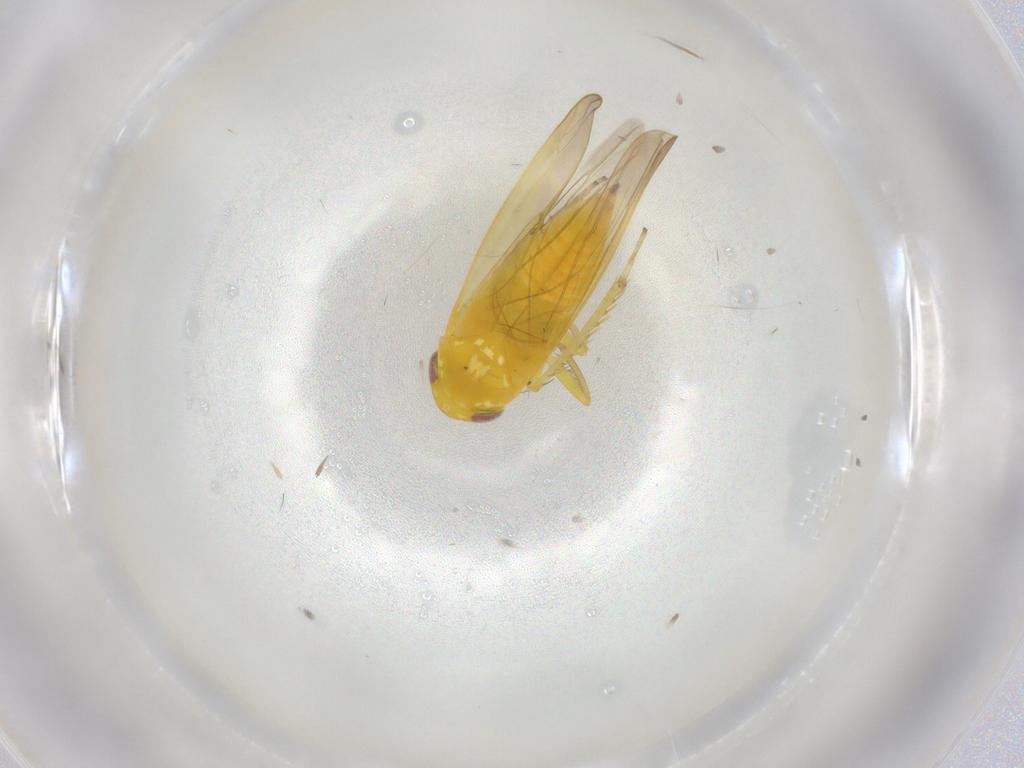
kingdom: Animalia
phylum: Arthropoda
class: Insecta
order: Hemiptera
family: Cicadellidae
